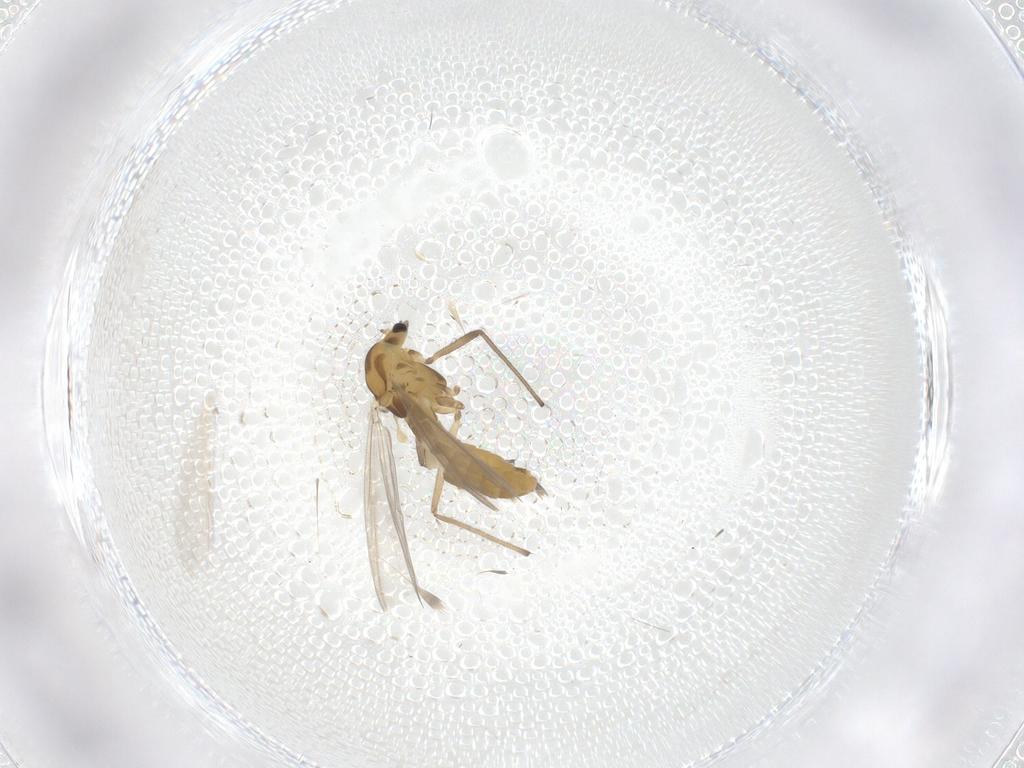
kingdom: Animalia
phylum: Arthropoda
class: Insecta
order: Diptera
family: Chironomidae
